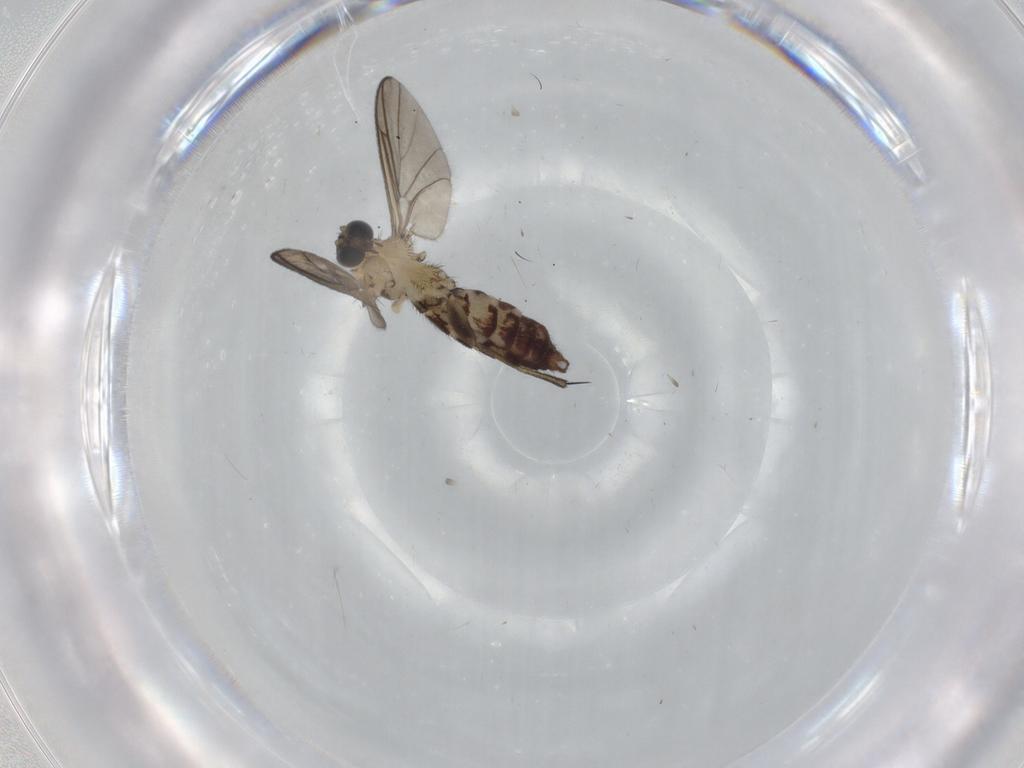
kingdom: Animalia
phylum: Arthropoda
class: Insecta
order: Diptera
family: Keroplatidae
